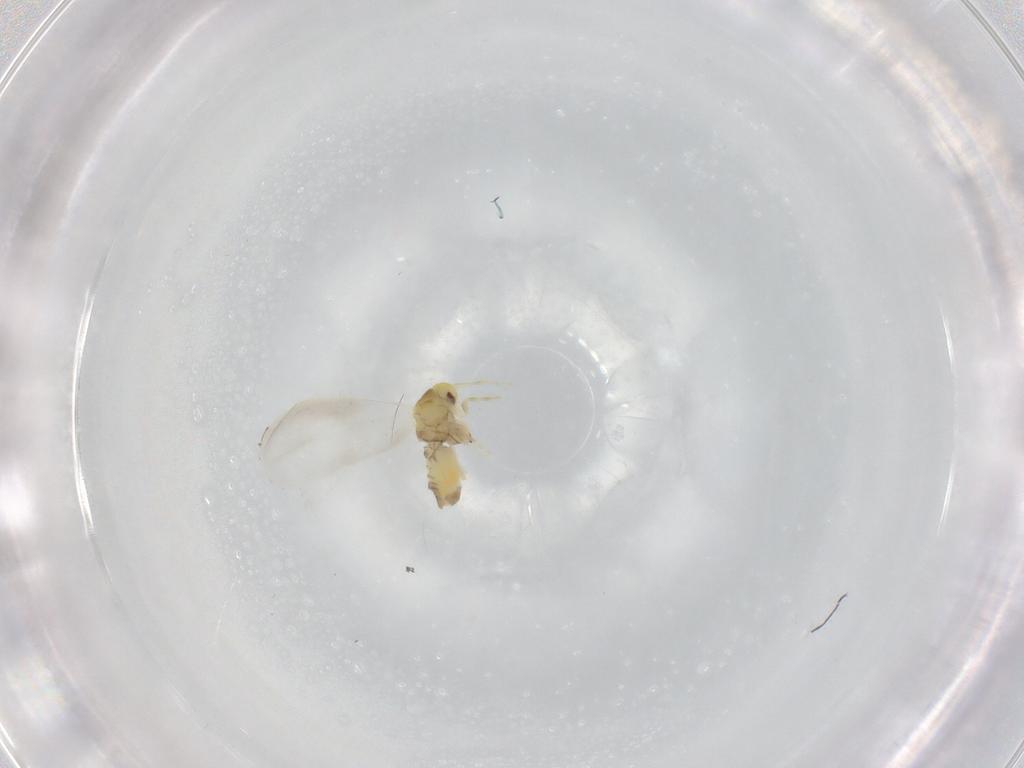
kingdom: Animalia
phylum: Arthropoda
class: Insecta
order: Hemiptera
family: Aleyrodidae
